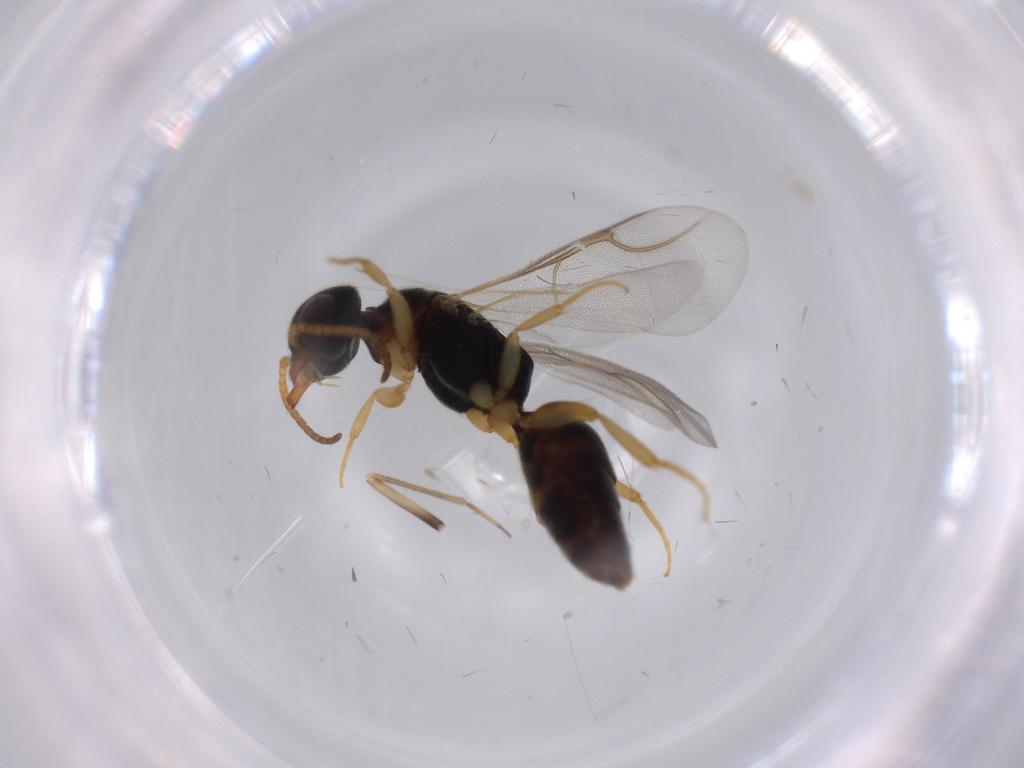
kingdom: Animalia
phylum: Arthropoda
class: Insecta
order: Hymenoptera
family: Bethylidae
